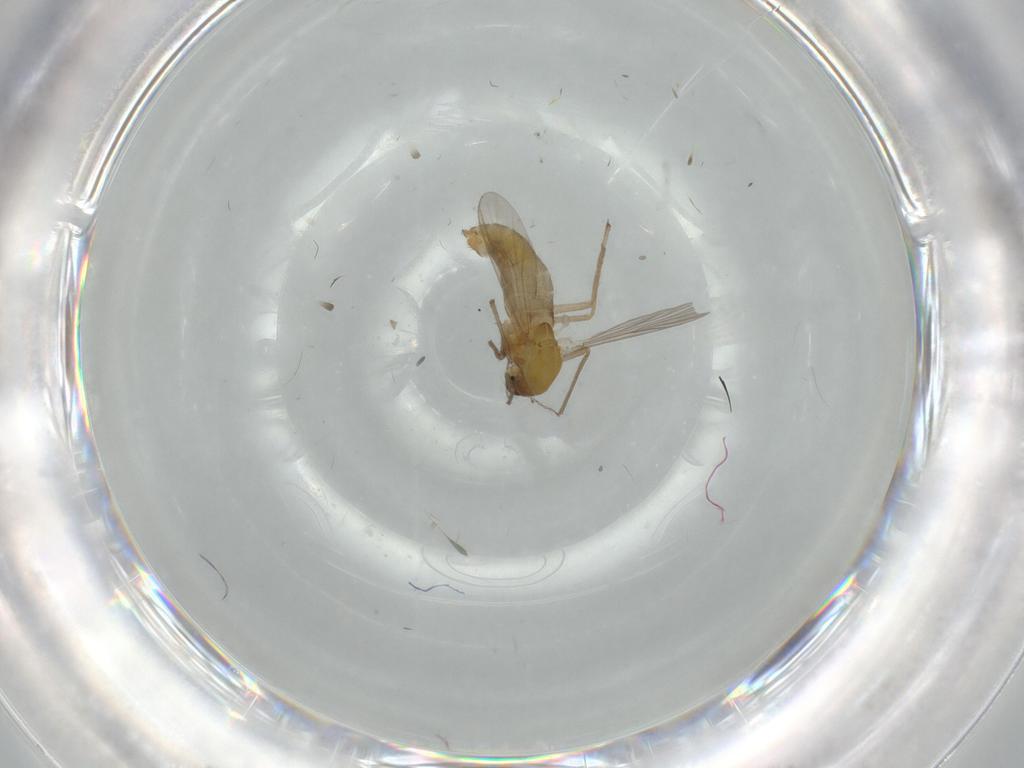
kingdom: Animalia
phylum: Arthropoda
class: Insecta
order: Diptera
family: Chironomidae
